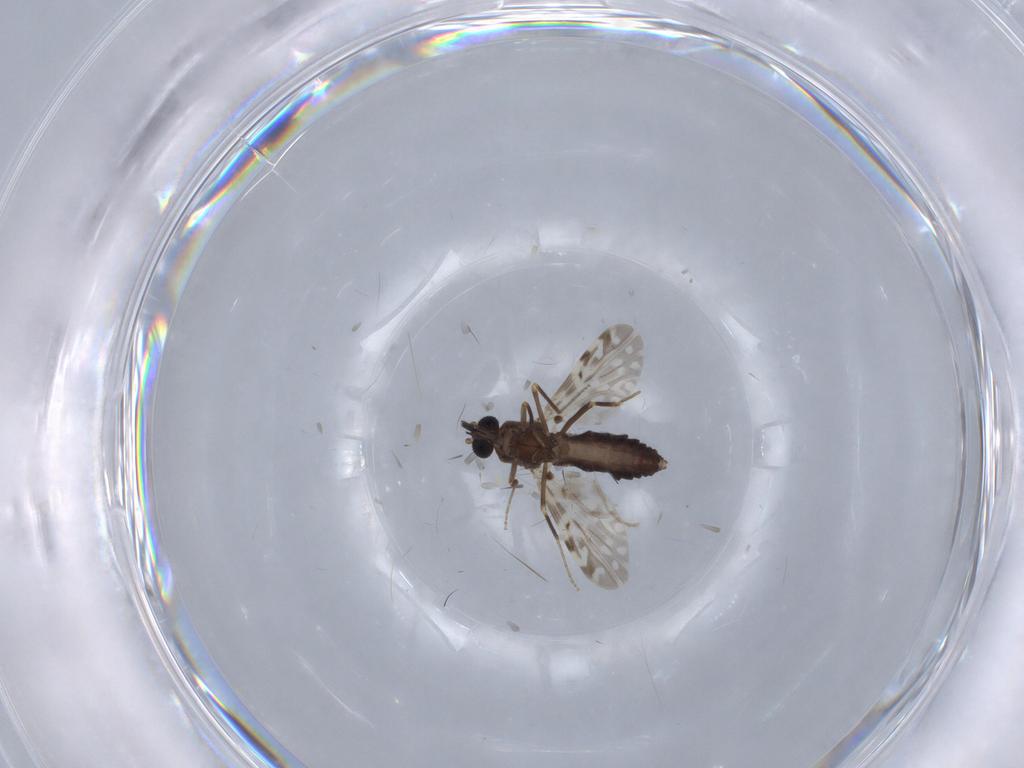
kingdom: Animalia
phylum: Arthropoda
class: Insecta
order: Diptera
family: Ceratopogonidae
